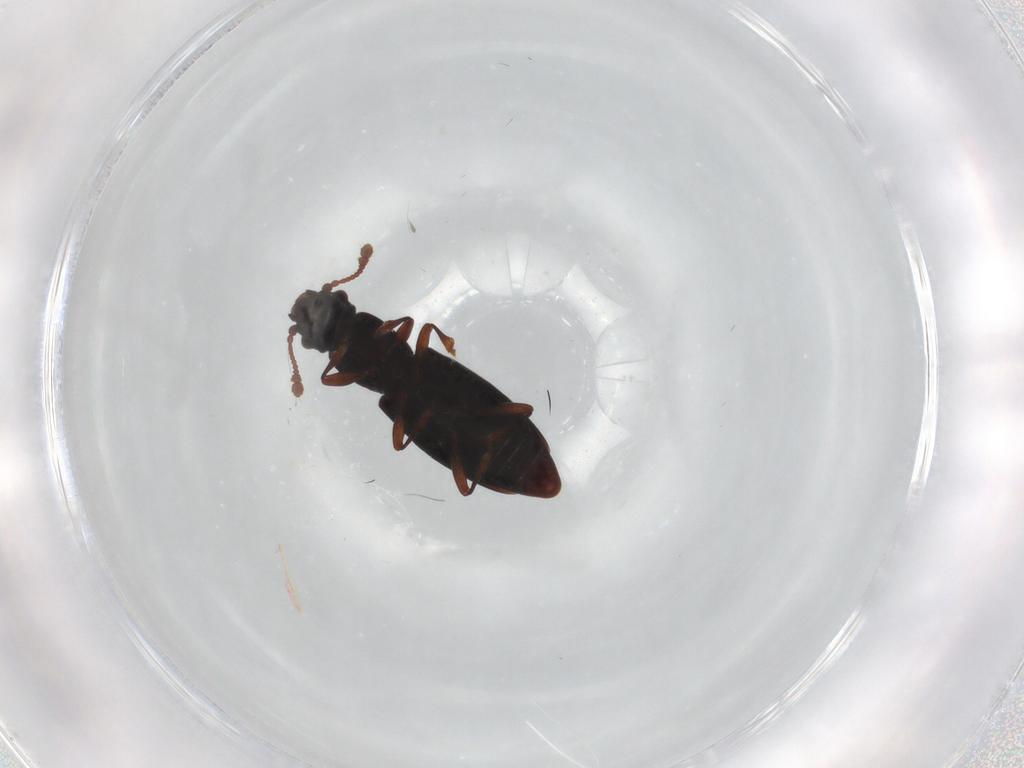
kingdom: Animalia
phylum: Arthropoda
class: Insecta
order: Coleoptera
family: Monotomidae
